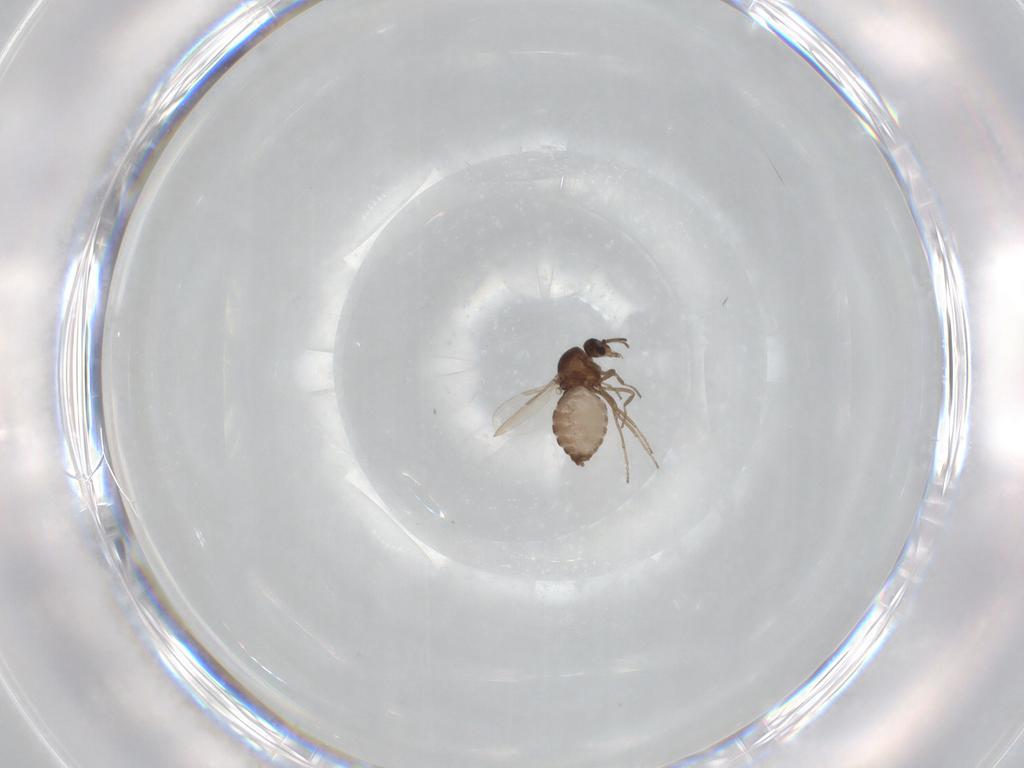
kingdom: Animalia
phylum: Arthropoda
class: Insecta
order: Diptera
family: Ceratopogonidae
